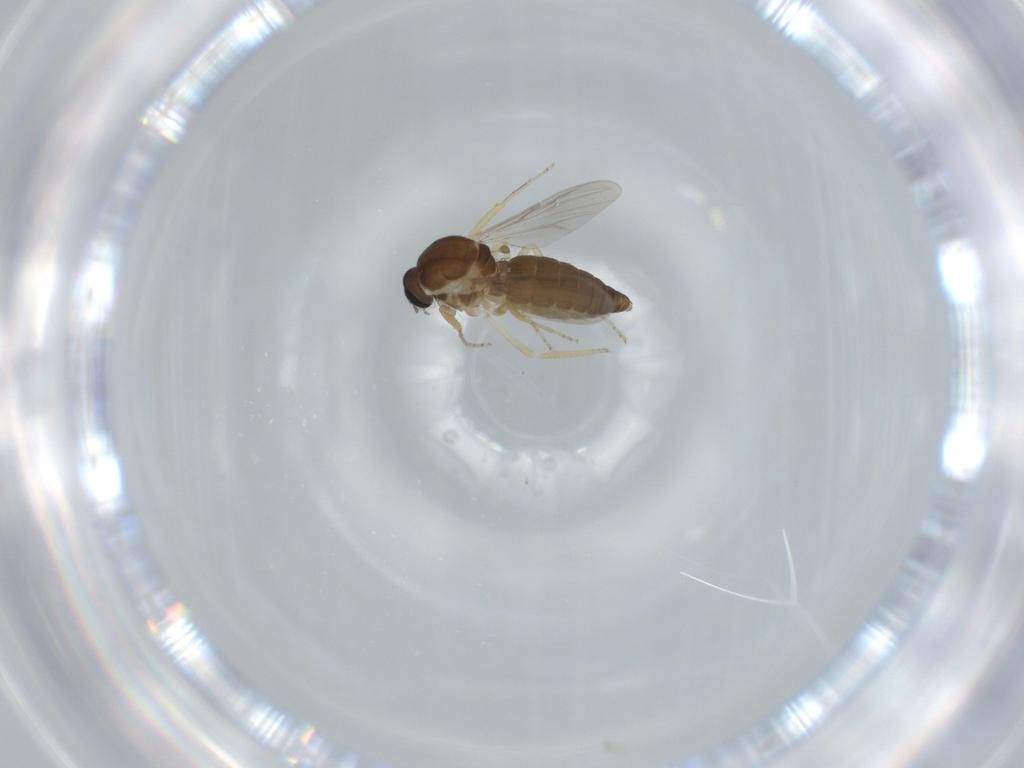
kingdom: Animalia
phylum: Arthropoda
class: Insecta
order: Diptera
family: Ceratopogonidae
